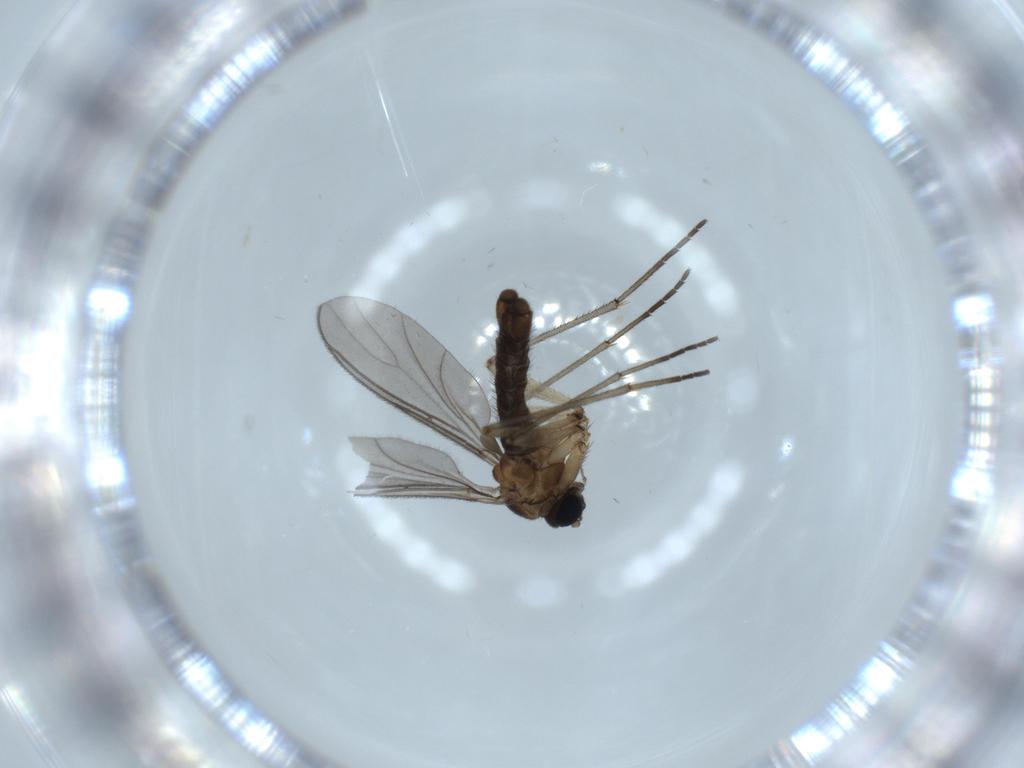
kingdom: Animalia
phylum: Arthropoda
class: Insecta
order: Diptera
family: Sciaridae
